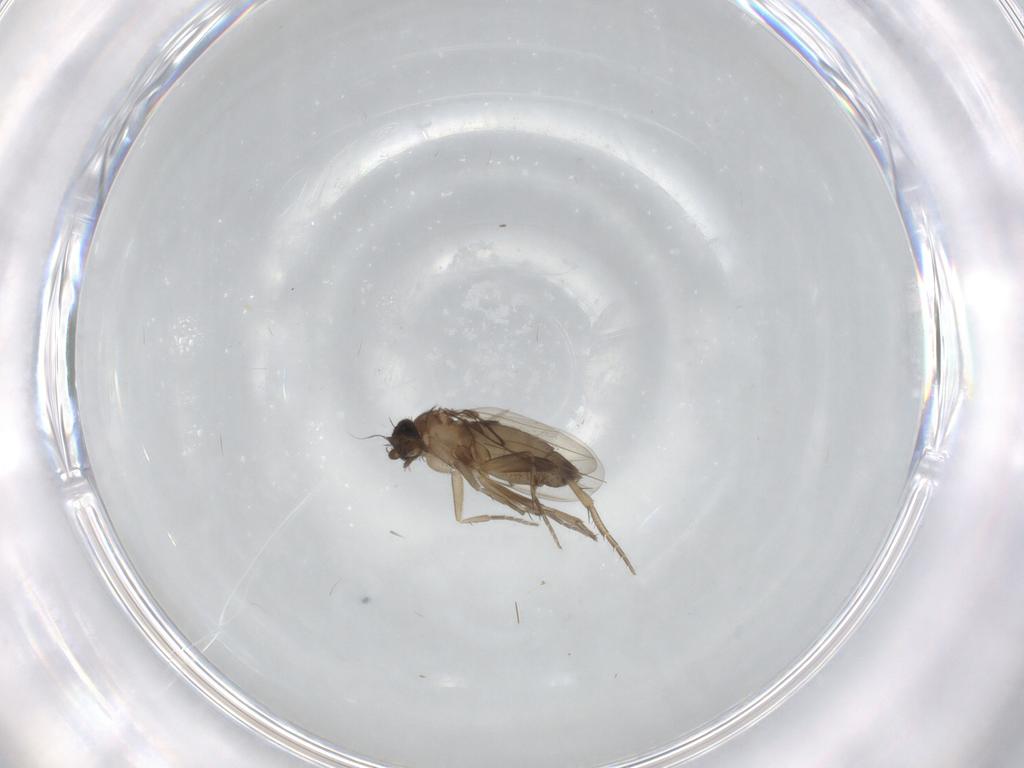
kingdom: Animalia
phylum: Arthropoda
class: Insecta
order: Diptera
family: Phoridae
